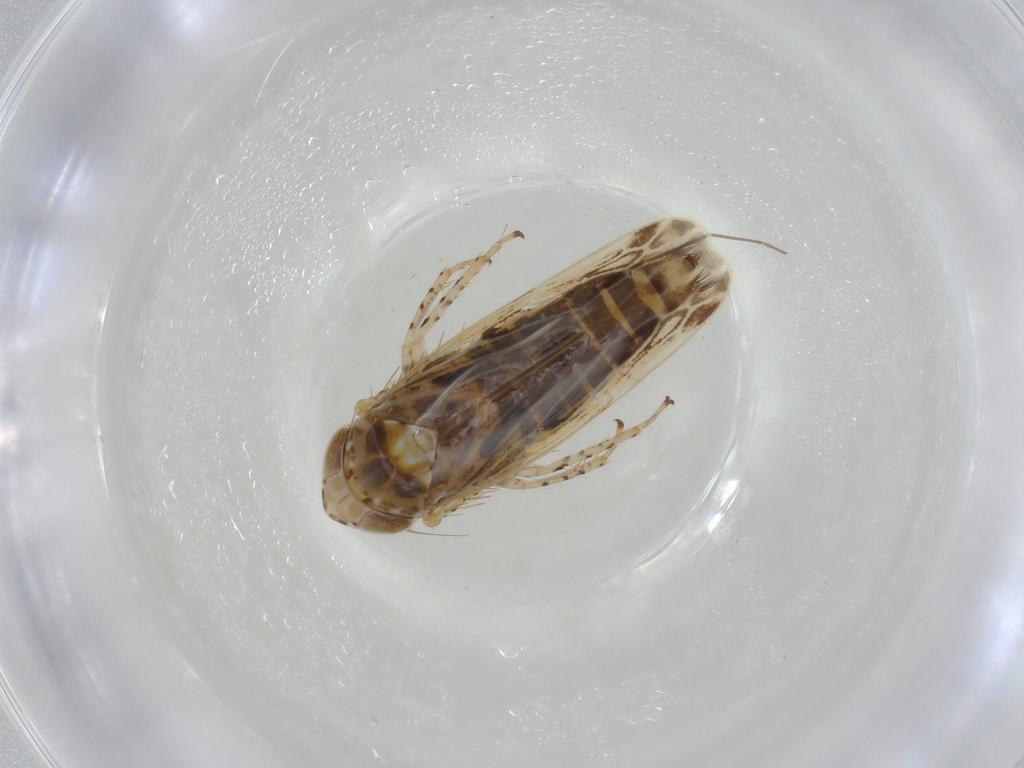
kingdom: Animalia
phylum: Arthropoda
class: Insecta
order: Hemiptera
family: Cicadellidae
